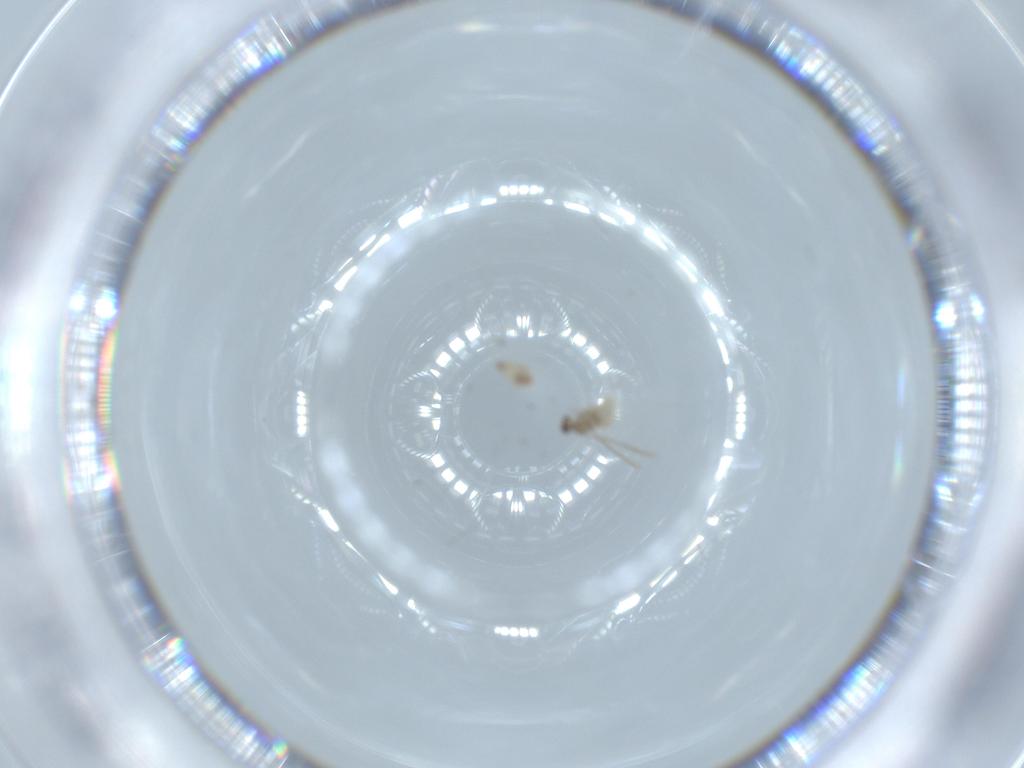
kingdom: Animalia
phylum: Arthropoda
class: Insecta
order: Diptera
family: Cecidomyiidae
